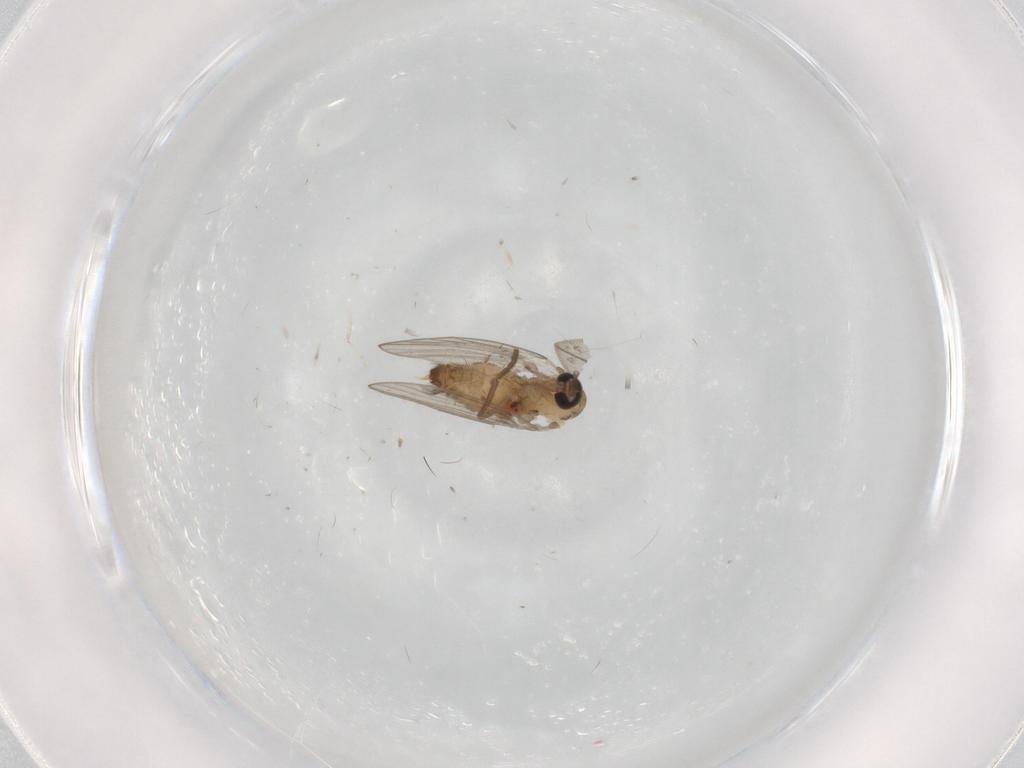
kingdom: Animalia
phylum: Arthropoda
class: Insecta
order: Diptera
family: Psychodidae
